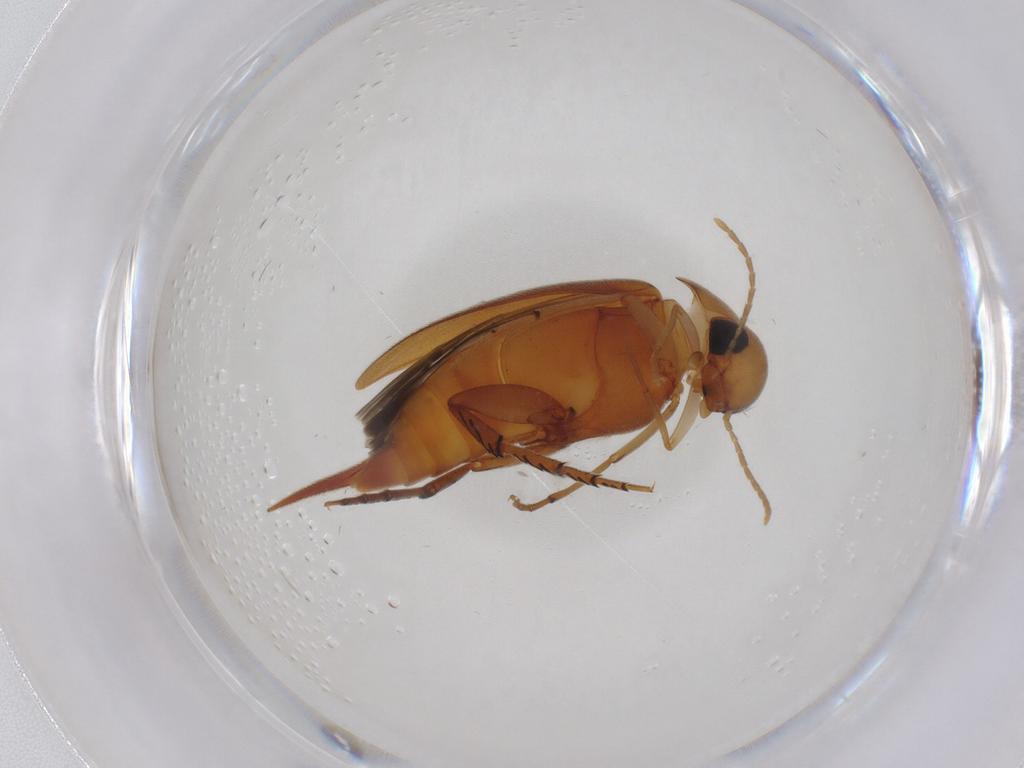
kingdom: Animalia
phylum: Arthropoda
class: Insecta
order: Coleoptera
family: Mordellidae
